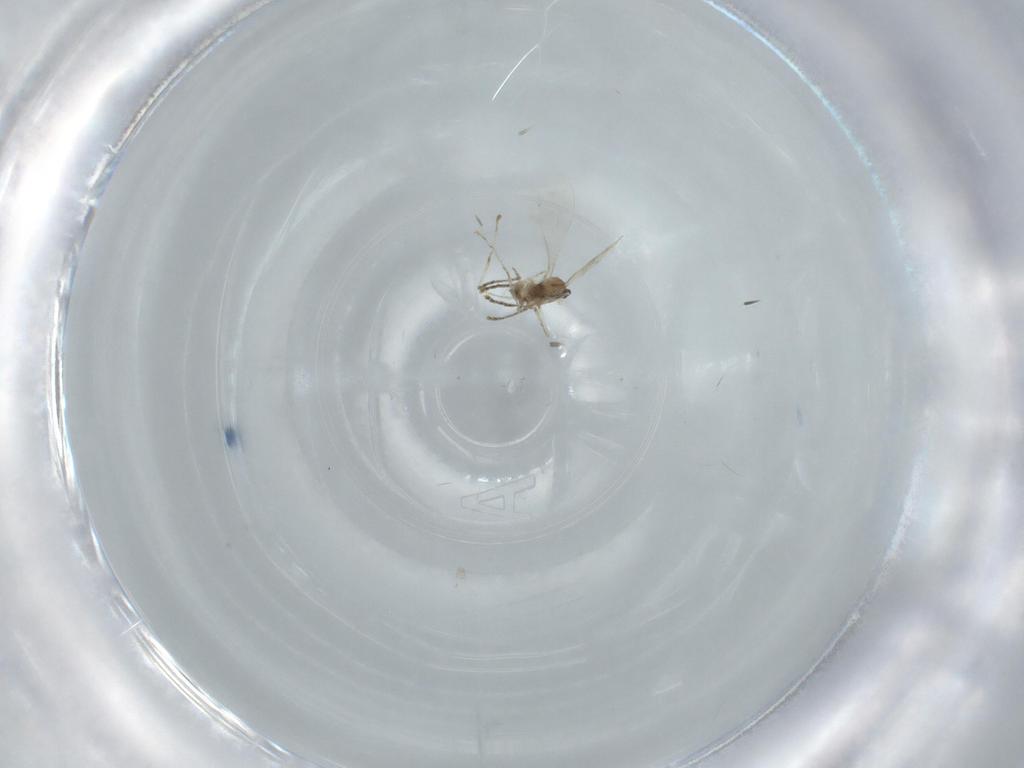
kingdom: Animalia
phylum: Arthropoda
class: Insecta
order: Diptera
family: Cecidomyiidae
